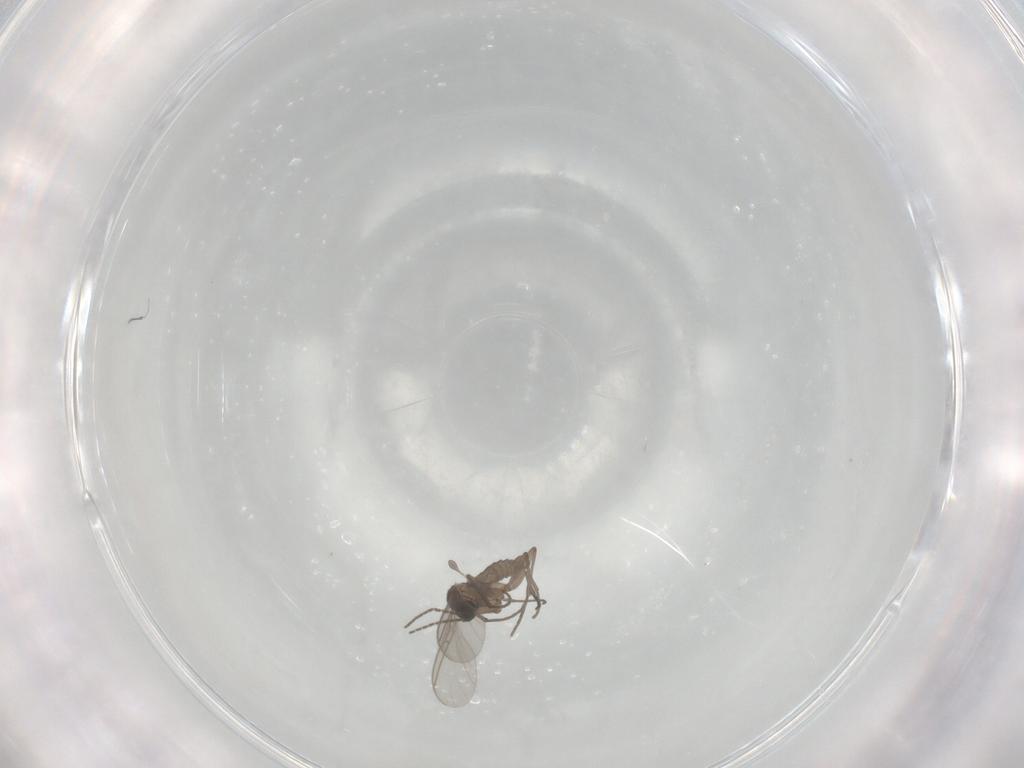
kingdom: Animalia
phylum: Arthropoda
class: Insecta
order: Diptera
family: Sciaridae
